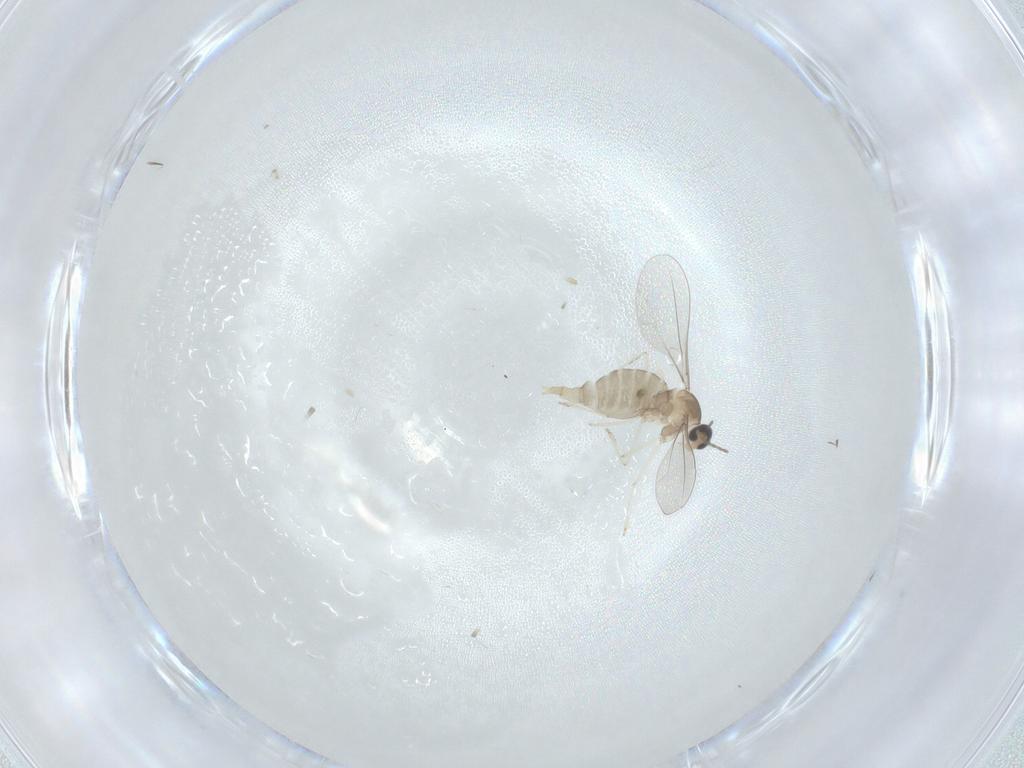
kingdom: Animalia
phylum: Arthropoda
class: Insecta
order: Diptera
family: Cecidomyiidae
